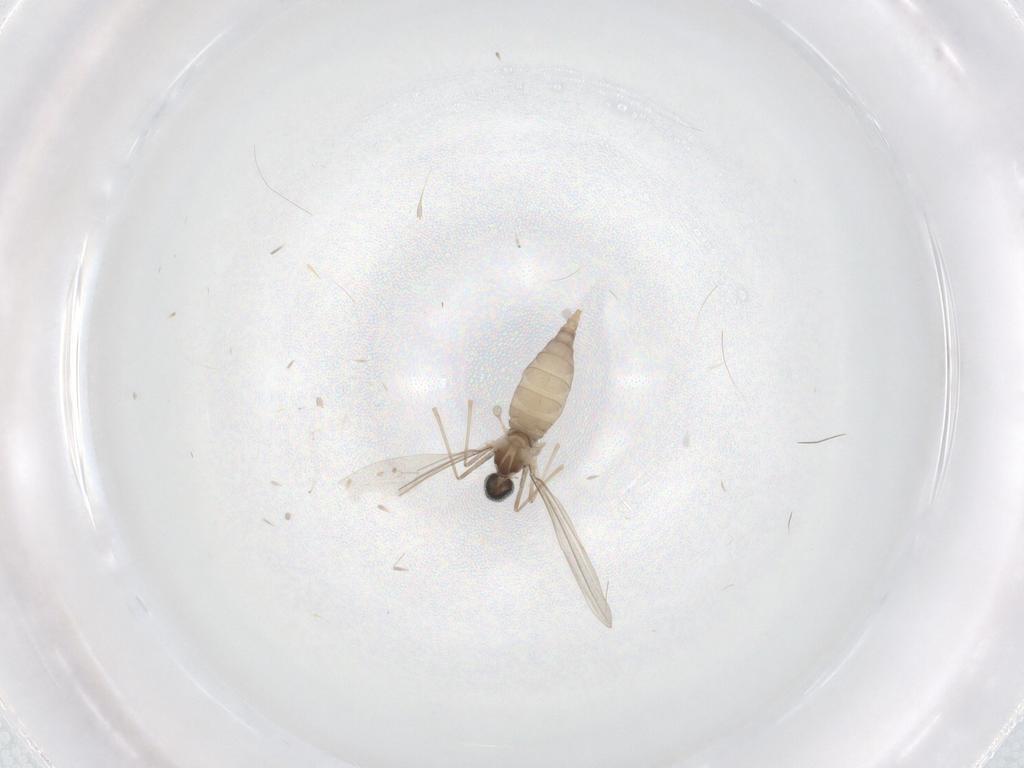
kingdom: Animalia
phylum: Arthropoda
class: Insecta
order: Diptera
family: Cecidomyiidae
